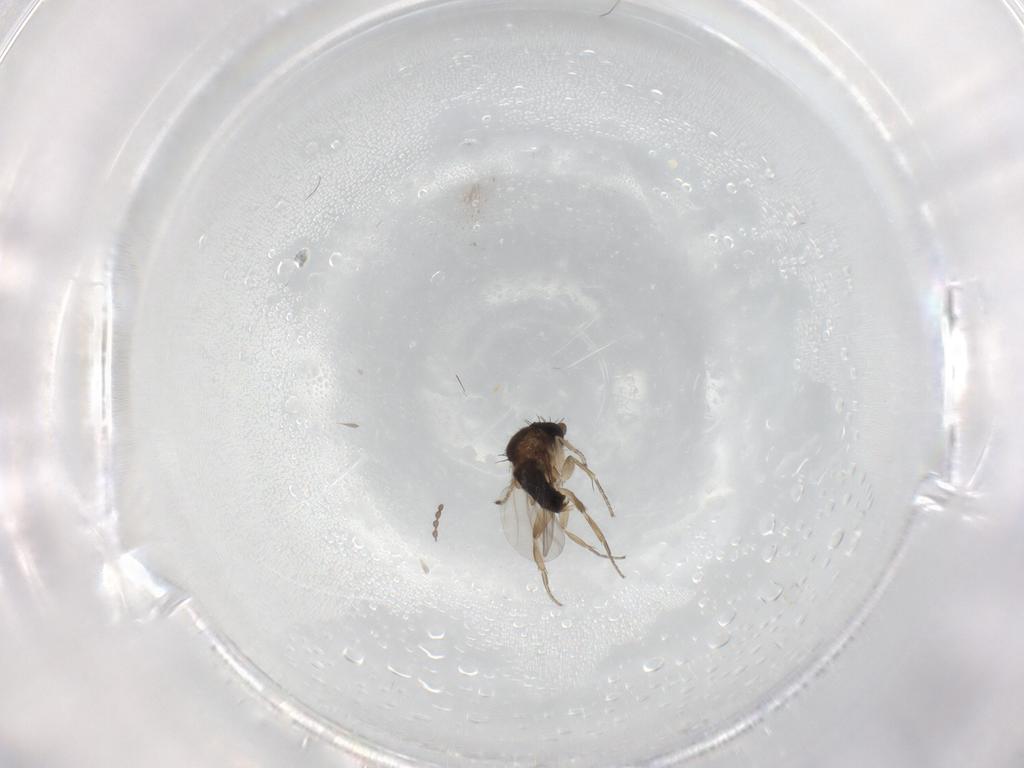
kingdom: Animalia
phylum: Arthropoda
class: Insecta
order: Diptera
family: Phoridae
